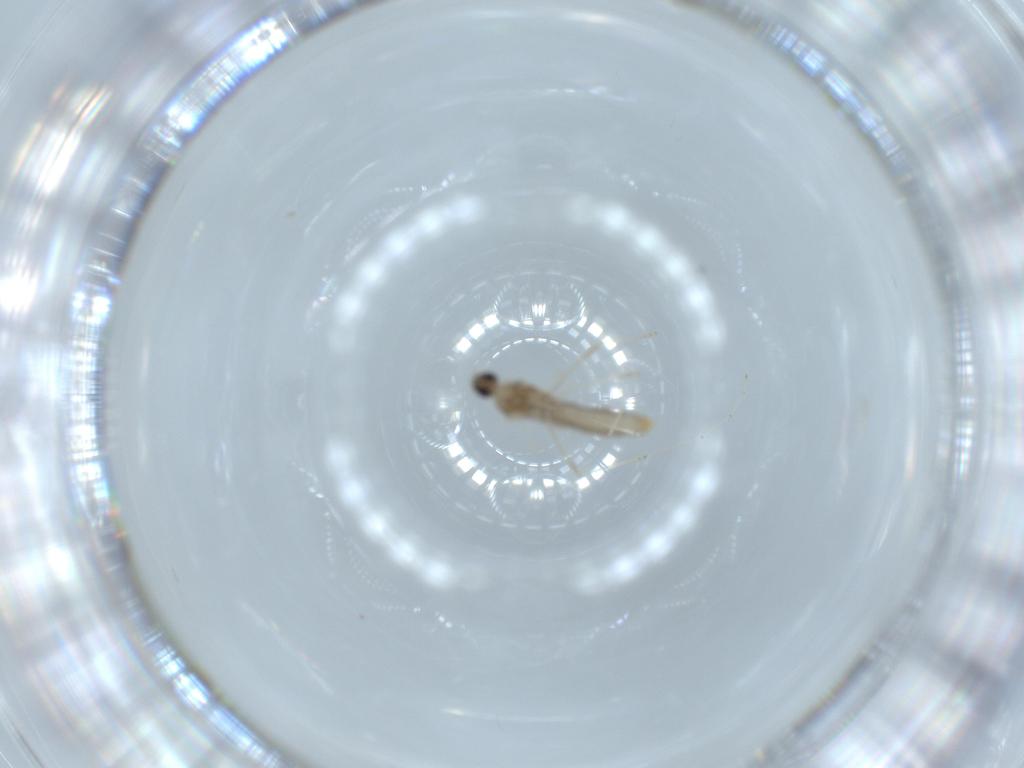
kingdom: Animalia
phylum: Arthropoda
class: Insecta
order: Diptera
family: Cecidomyiidae
